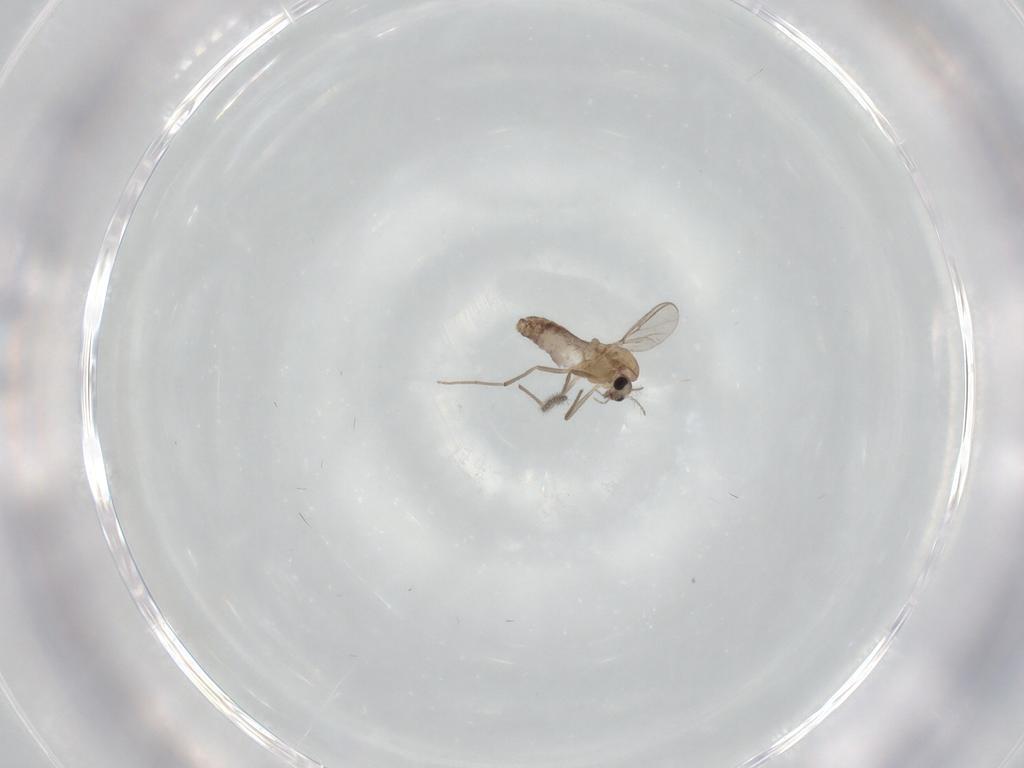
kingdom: Animalia
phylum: Arthropoda
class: Insecta
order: Diptera
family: Chironomidae
